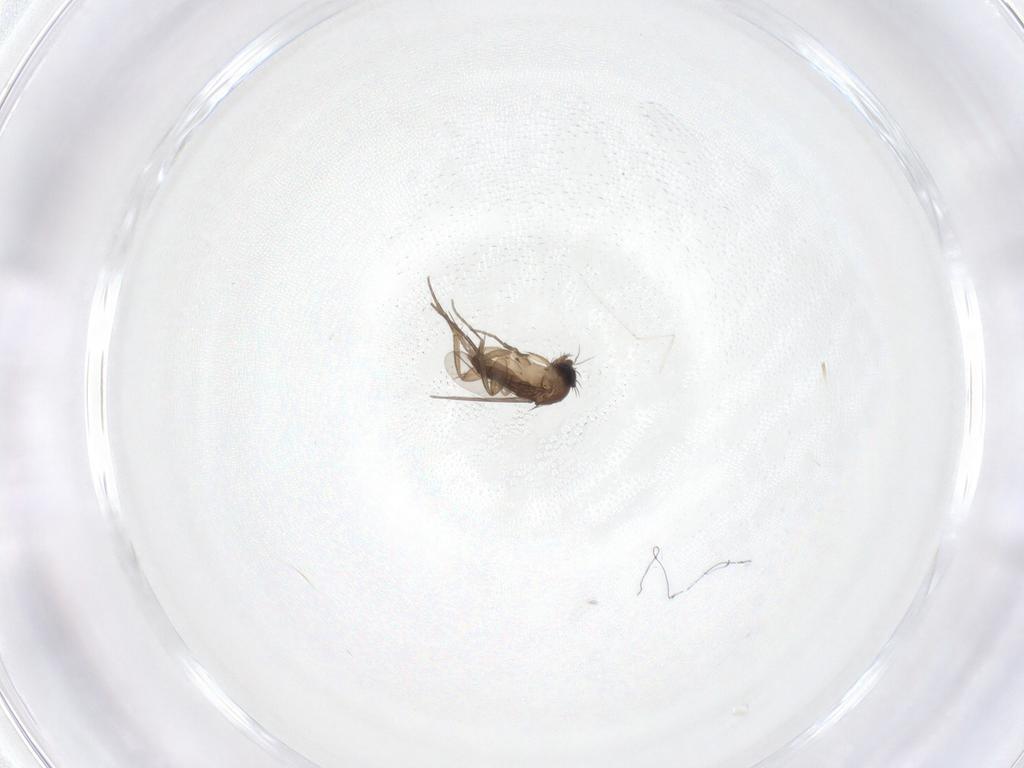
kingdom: Animalia
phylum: Arthropoda
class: Insecta
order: Diptera
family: Phoridae
